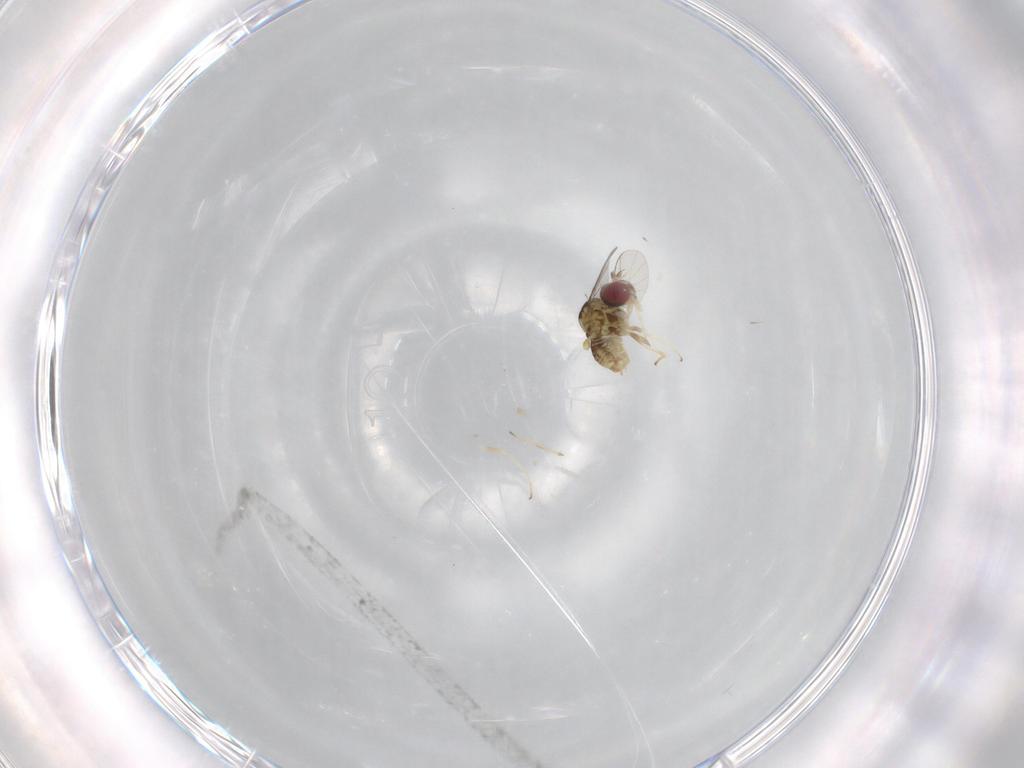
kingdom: Animalia
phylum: Arthropoda
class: Insecta
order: Diptera
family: Bombyliidae
